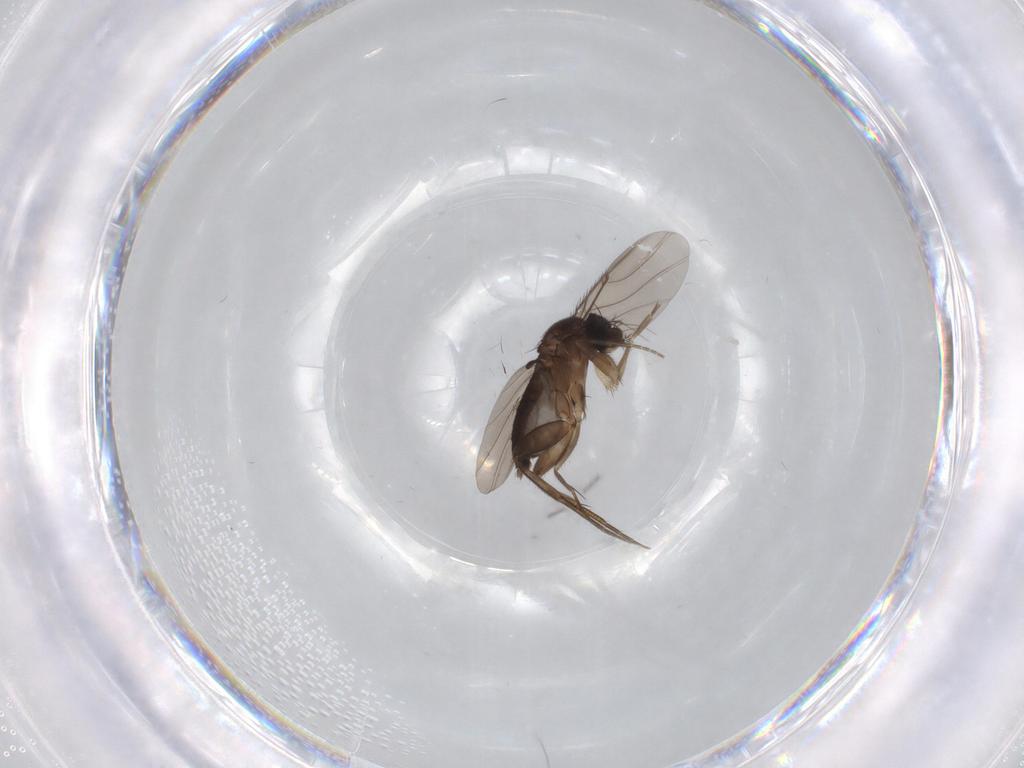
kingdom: Animalia
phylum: Arthropoda
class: Insecta
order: Diptera
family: Phoridae
